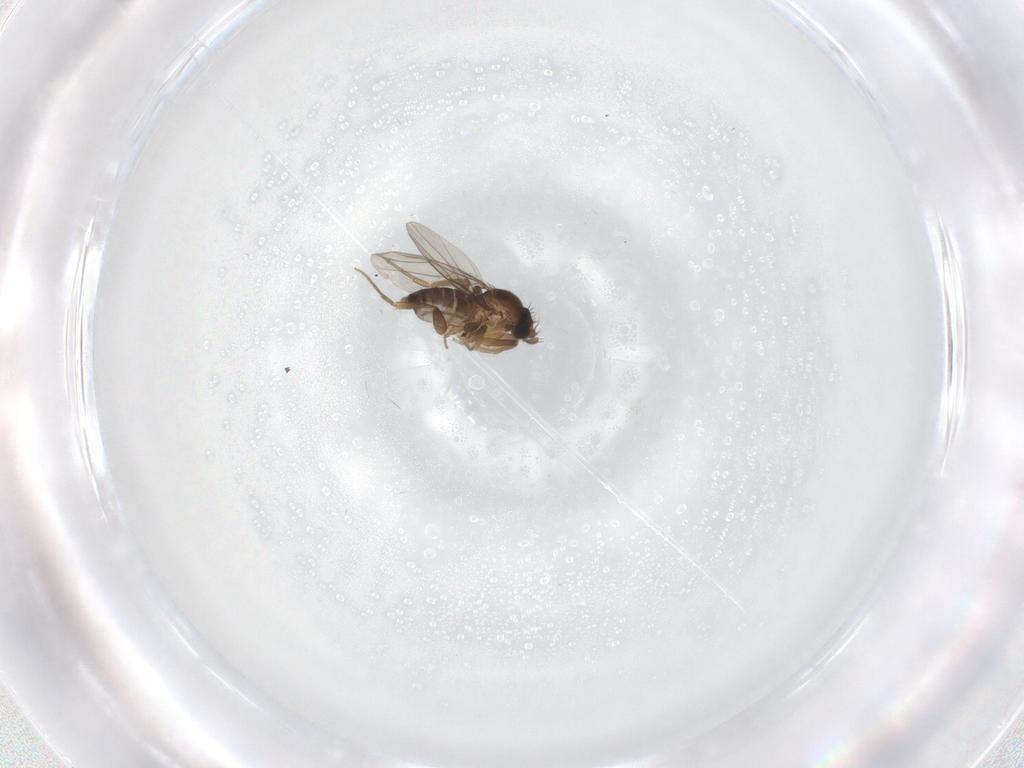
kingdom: Animalia
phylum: Arthropoda
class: Insecta
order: Diptera
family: Phoridae
